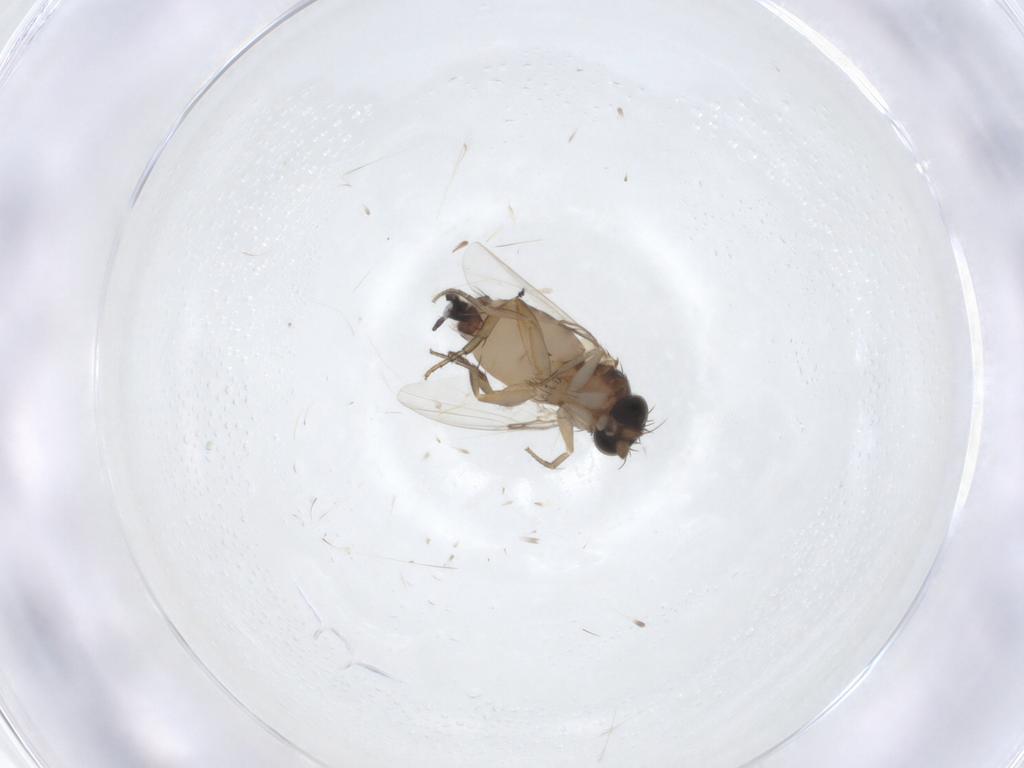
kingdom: Animalia
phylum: Arthropoda
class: Insecta
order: Diptera
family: Phoridae
